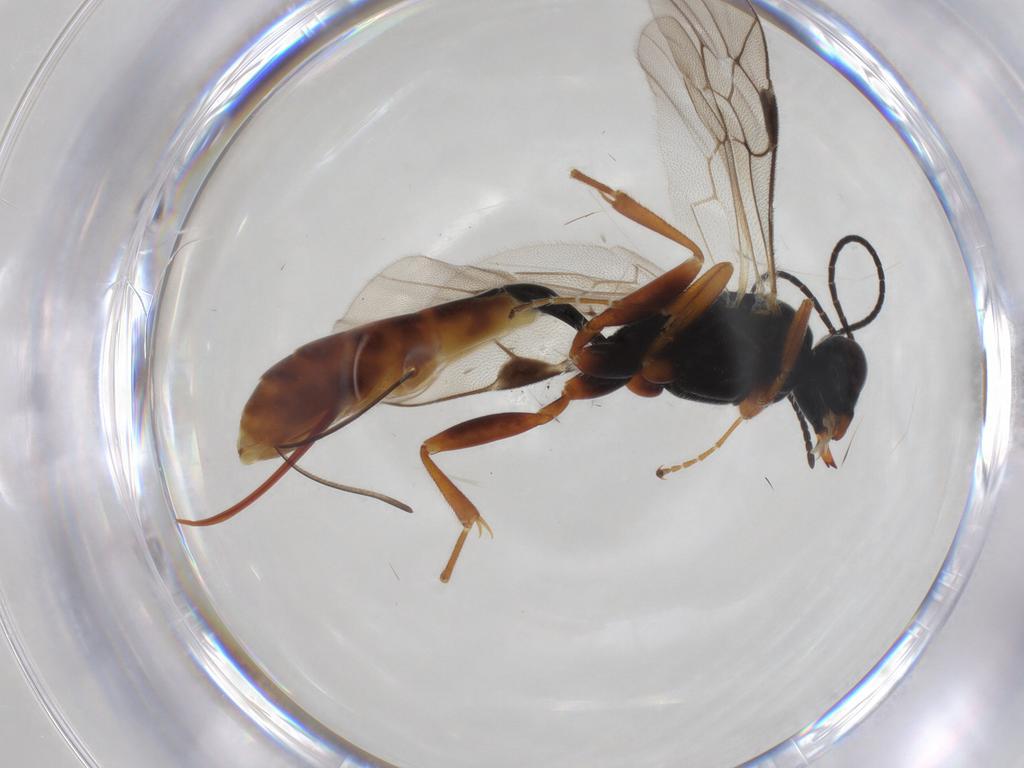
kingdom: Animalia
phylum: Arthropoda
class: Insecta
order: Hymenoptera
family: Ichneumonidae
